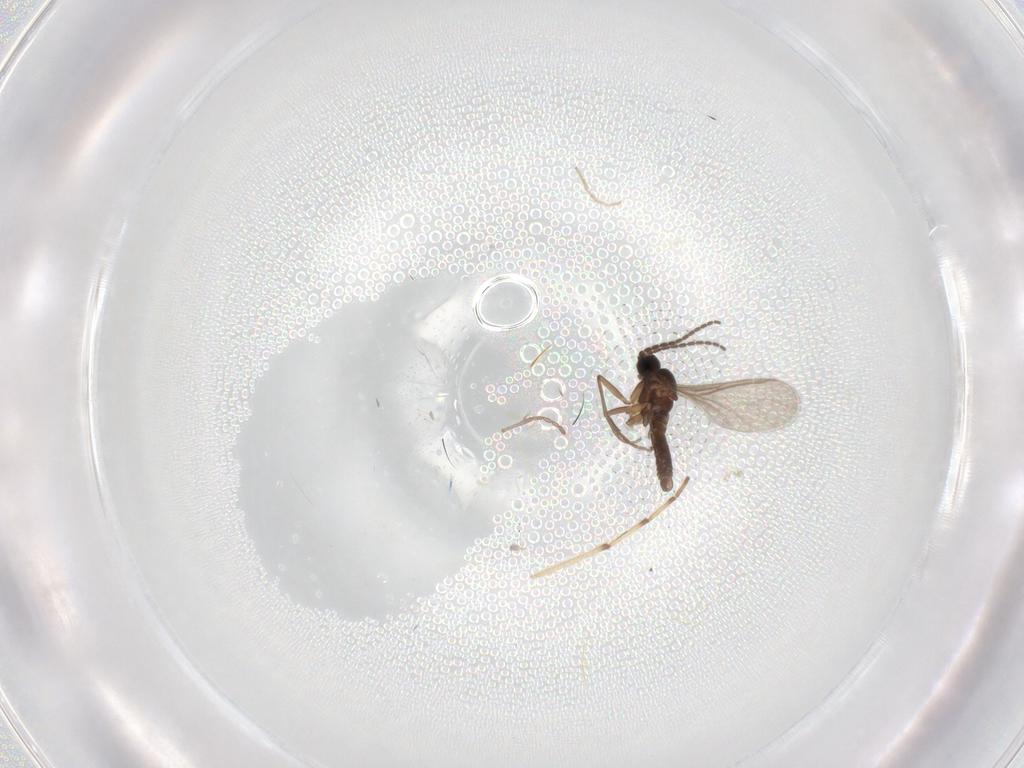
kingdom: Animalia
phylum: Arthropoda
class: Insecta
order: Diptera
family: Sciaridae
